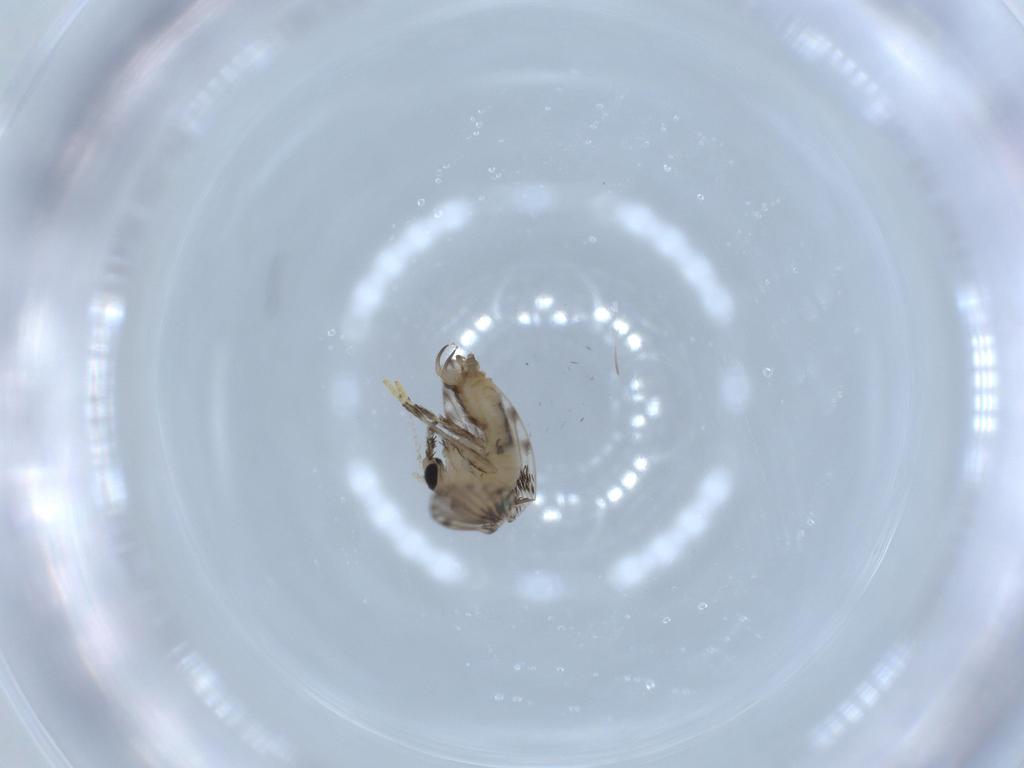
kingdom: Animalia
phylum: Arthropoda
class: Insecta
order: Diptera
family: Psychodidae
